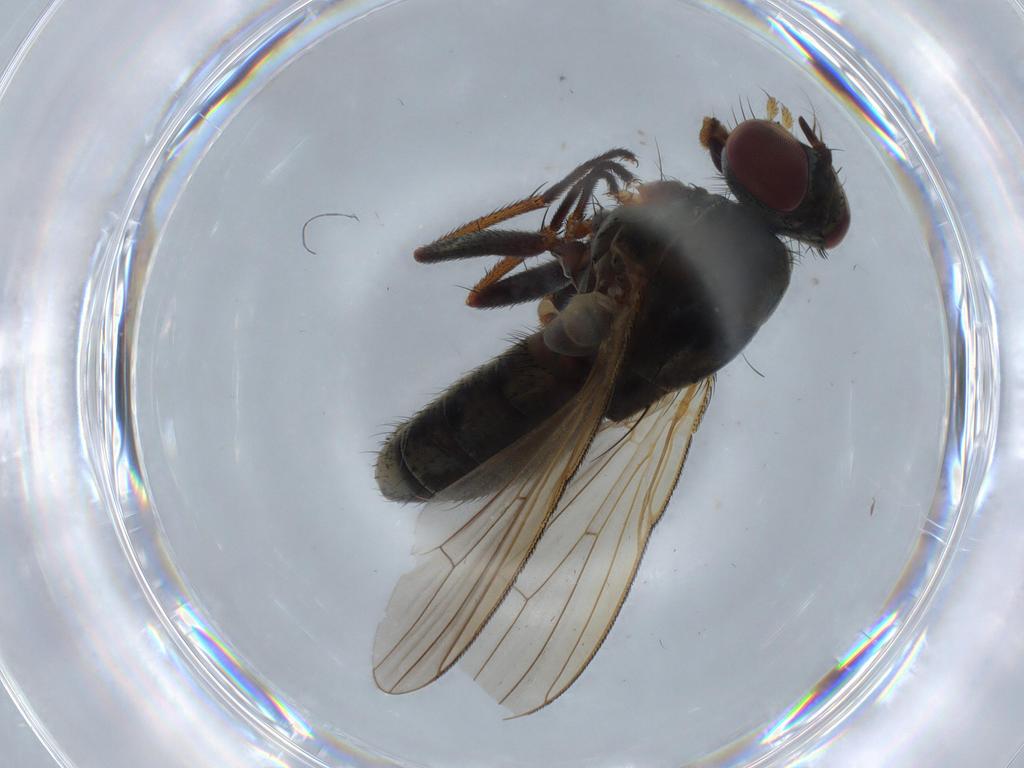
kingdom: Animalia
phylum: Arthropoda
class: Insecta
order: Diptera
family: Muscidae
